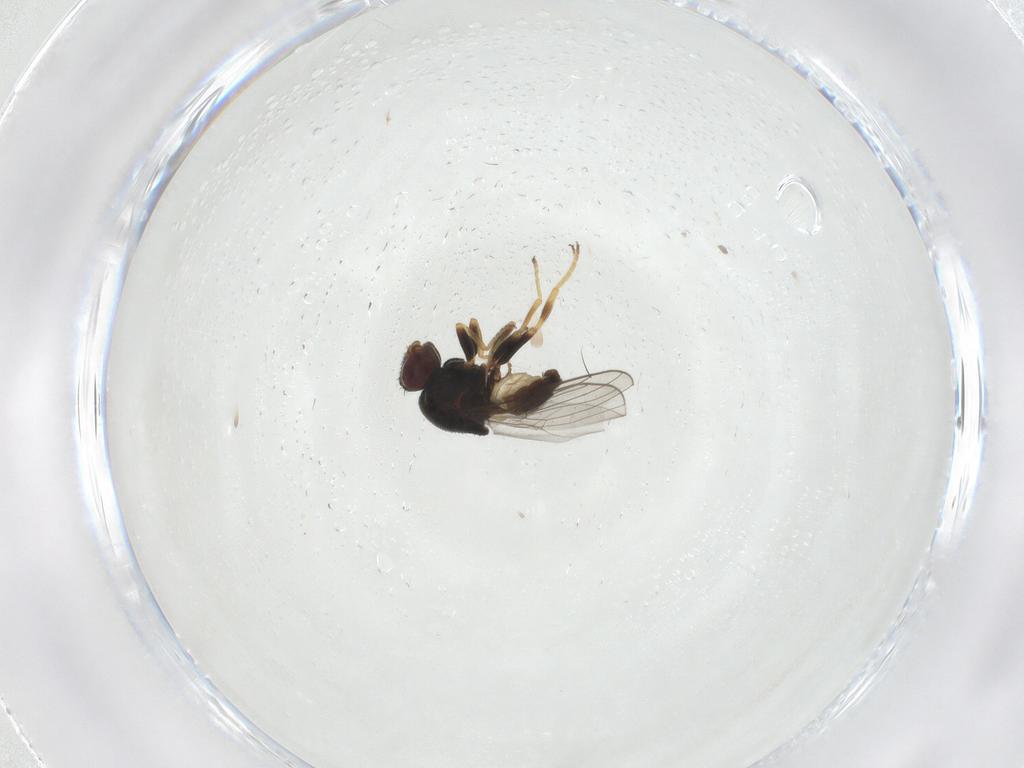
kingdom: Animalia
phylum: Arthropoda
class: Insecta
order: Diptera
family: Chloropidae
